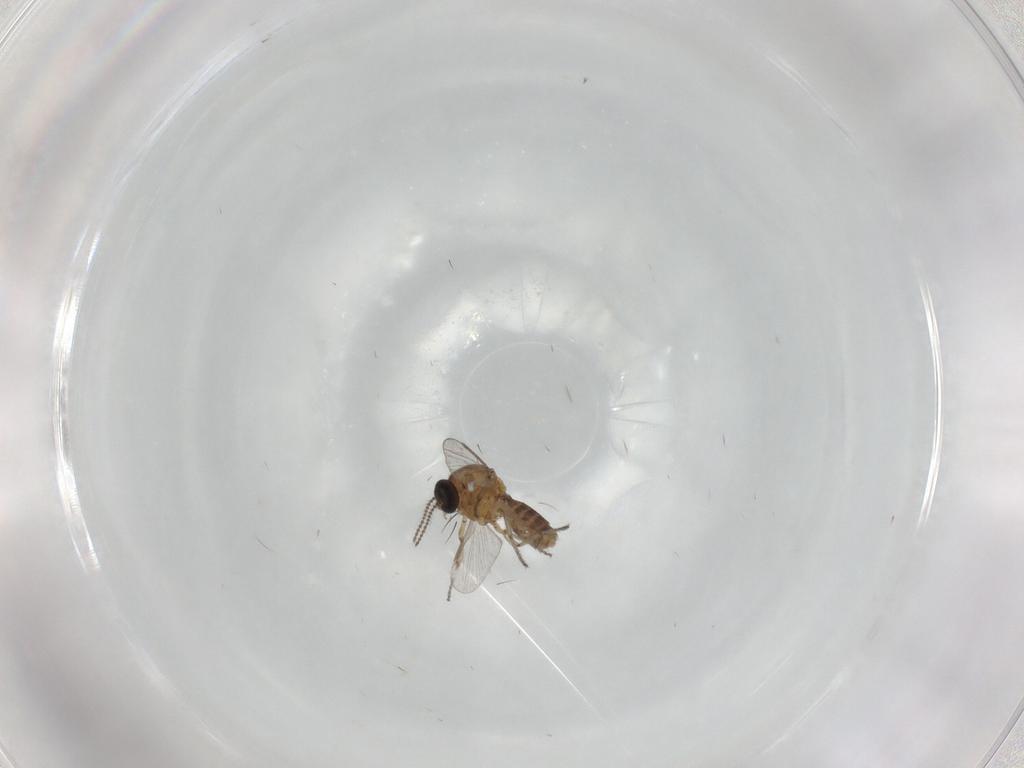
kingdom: Animalia
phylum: Arthropoda
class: Insecta
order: Diptera
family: Ceratopogonidae
